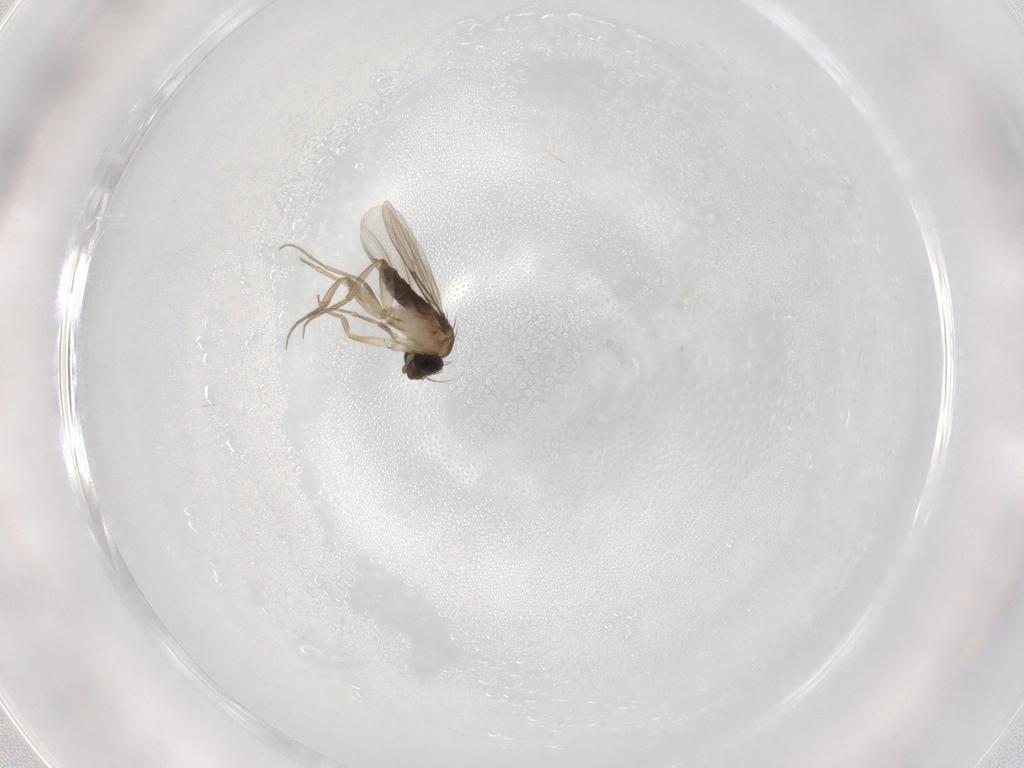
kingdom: Animalia
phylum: Arthropoda
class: Insecta
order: Diptera
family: Phoridae
